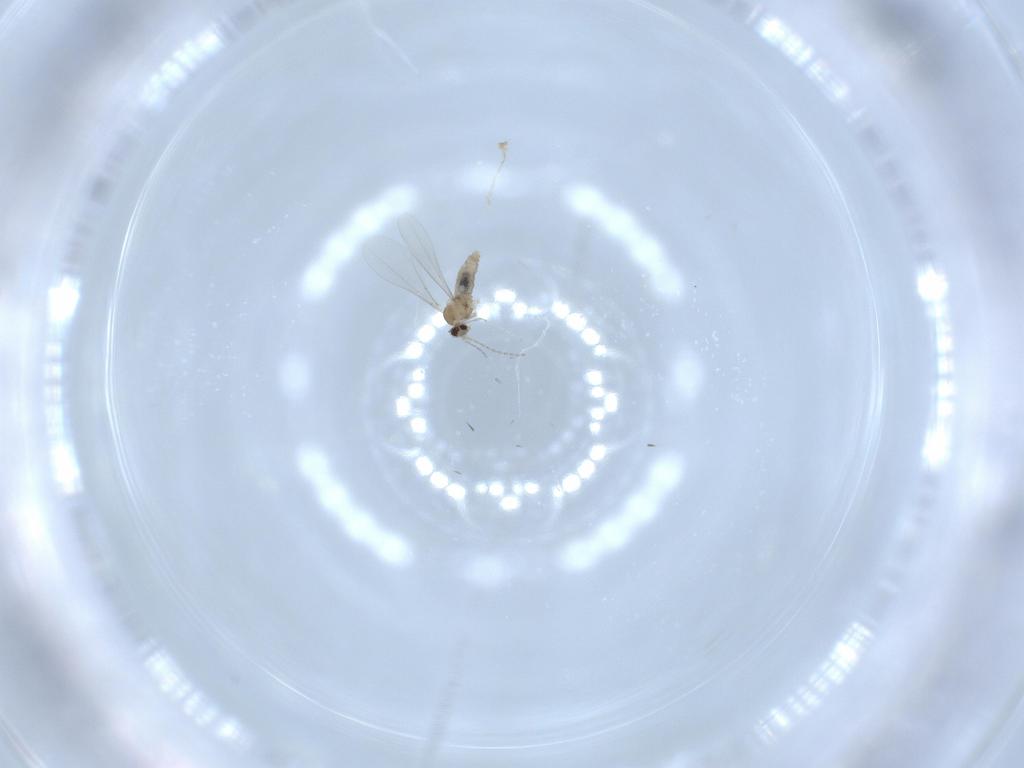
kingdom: Animalia
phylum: Arthropoda
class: Insecta
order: Diptera
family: Cecidomyiidae
